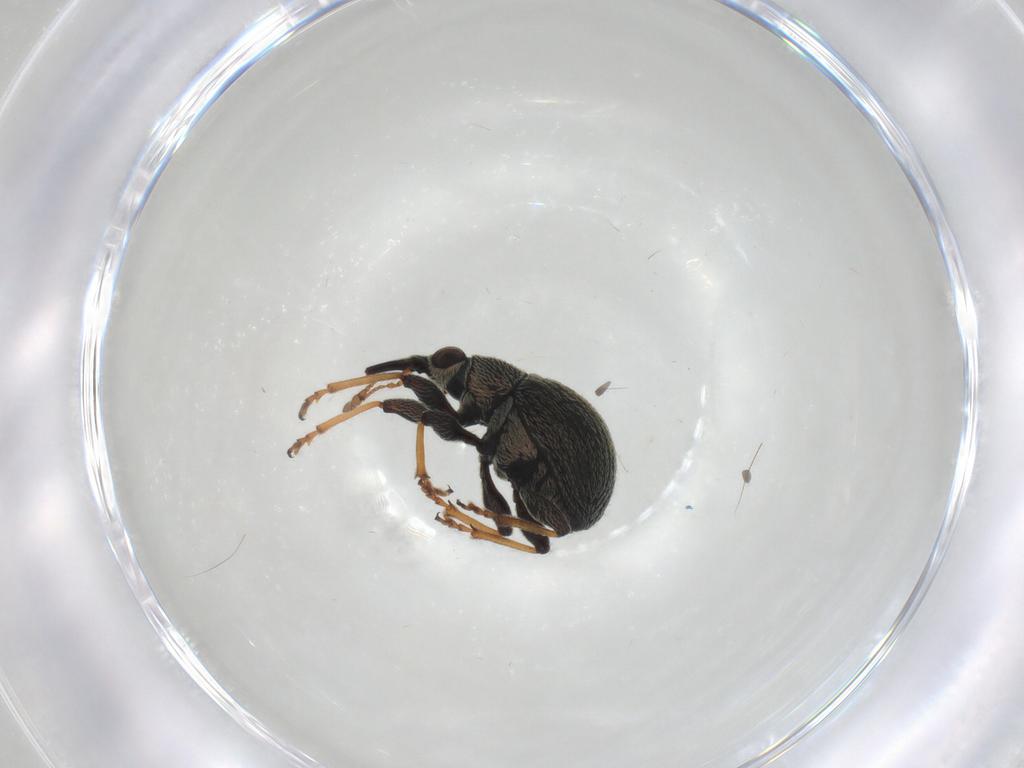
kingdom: Animalia
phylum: Arthropoda
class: Insecta
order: Coleoptera
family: Brentidae
